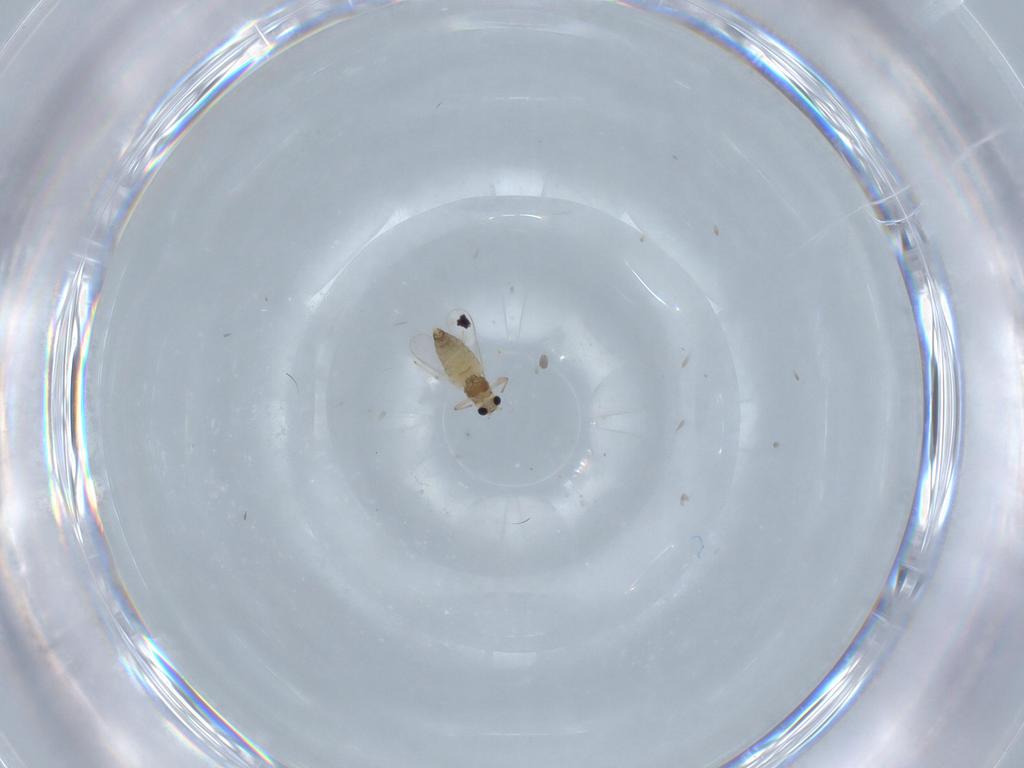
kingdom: Animalia
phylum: Arthropoda
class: Insecta
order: Diptera
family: Chironomidae
